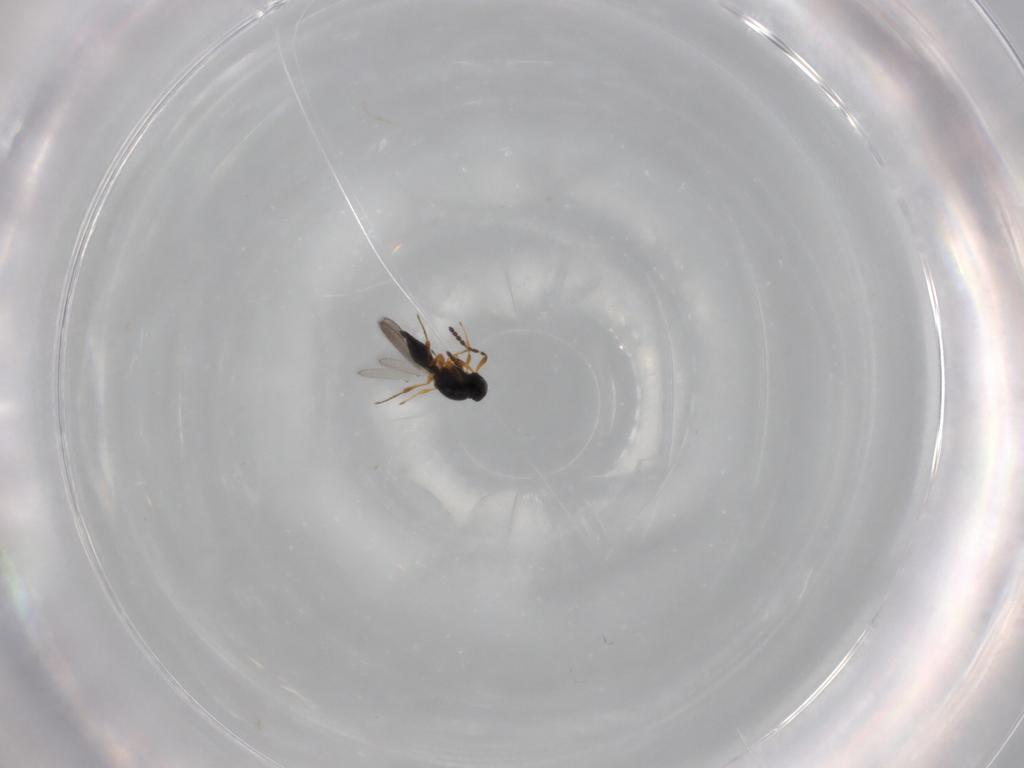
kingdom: Animalia
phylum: Arthropoda
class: Insecta
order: Hymenoptera
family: Platygastridae
